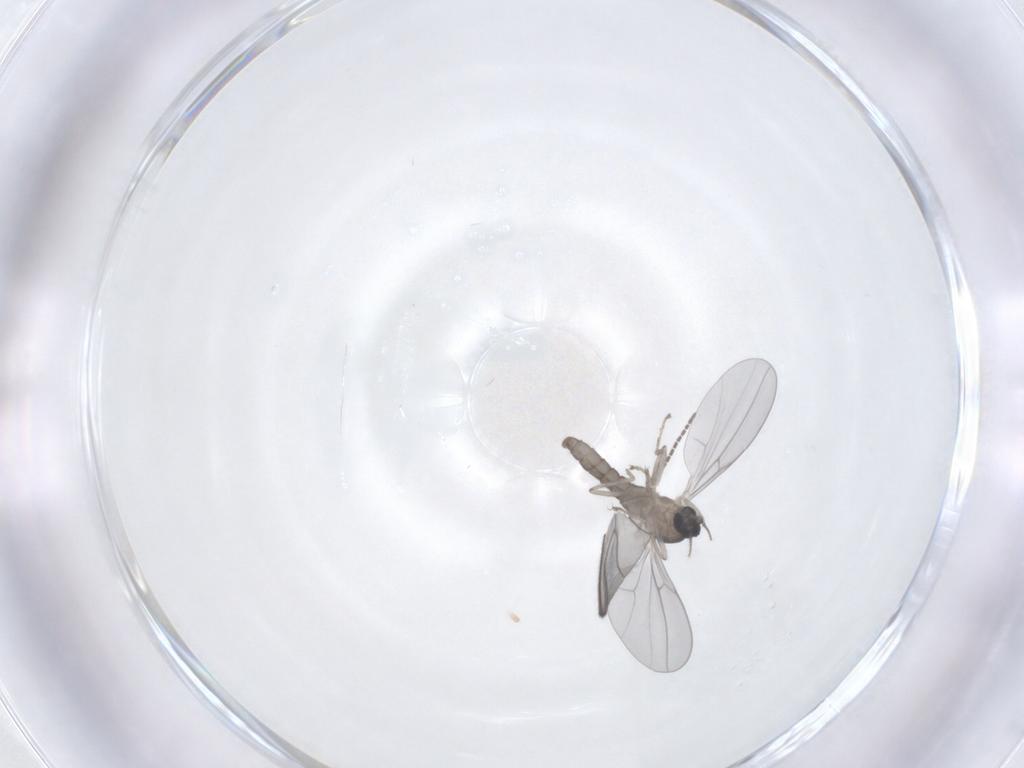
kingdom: Animalia
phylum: Arthropoda
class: Insecta
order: Diptera
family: Cecidomyiidae
